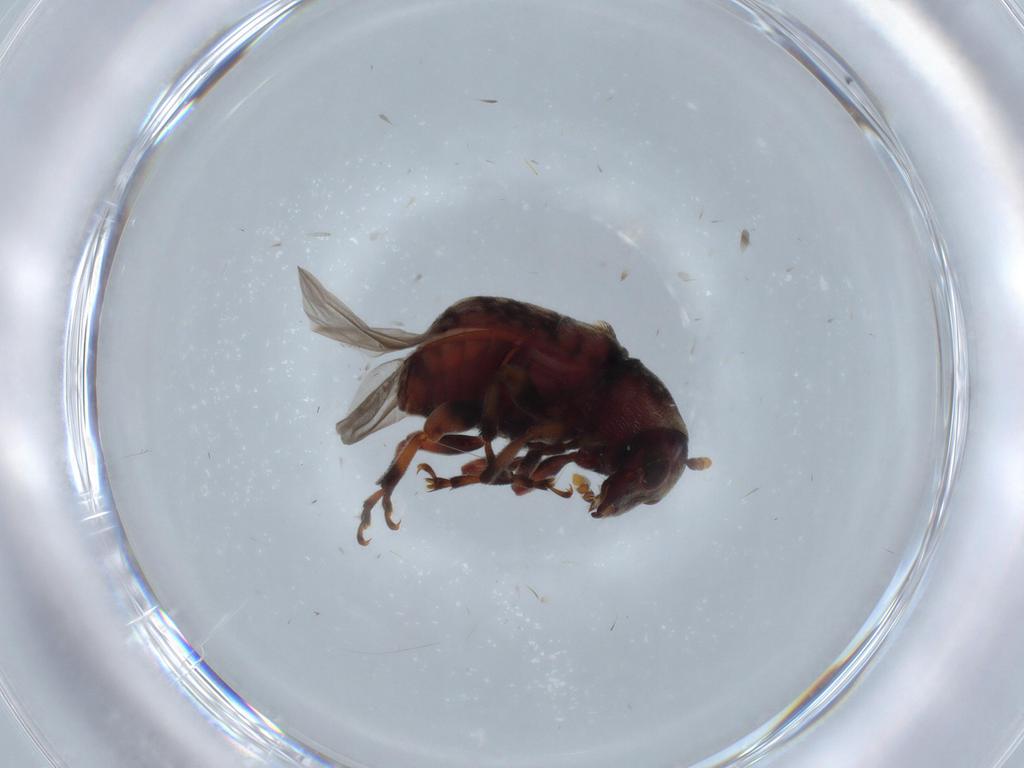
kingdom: Animalia
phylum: Arthropoda
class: Insecta
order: Coleoptera
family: Anthribidae
